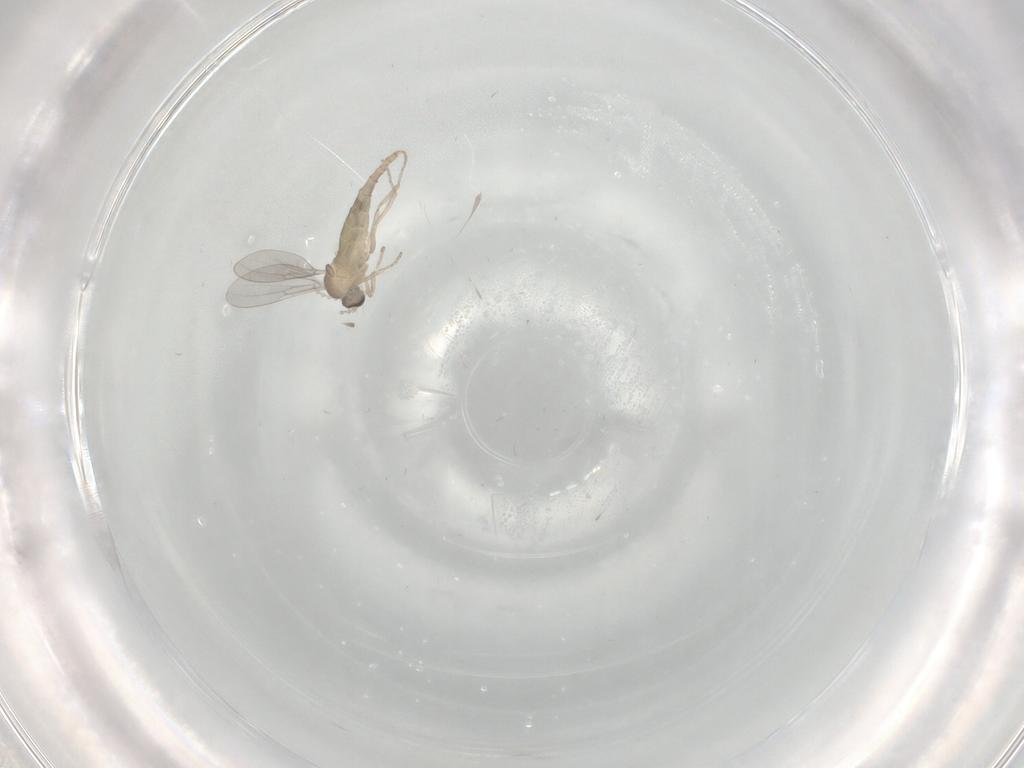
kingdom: Animalia
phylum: Arthropoda
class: Insecta
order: Diptera
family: Cecidomyiidae
